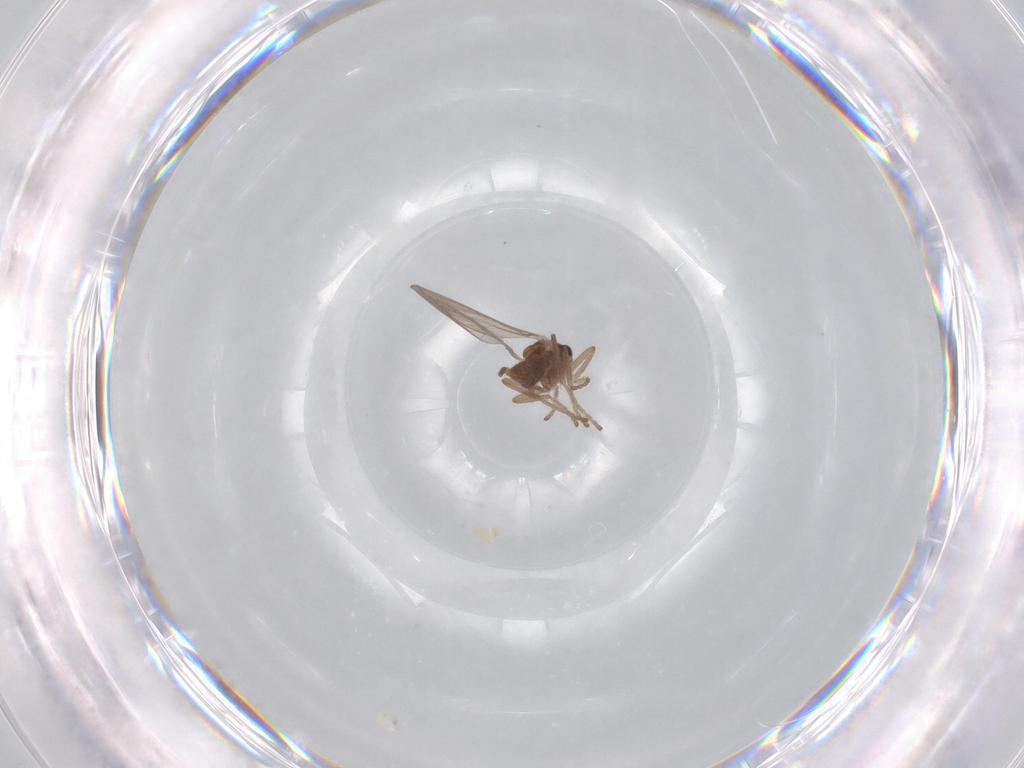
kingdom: Animalia
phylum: Arthropoda
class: Insecta
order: Diptera
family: Cecidomyiidae
